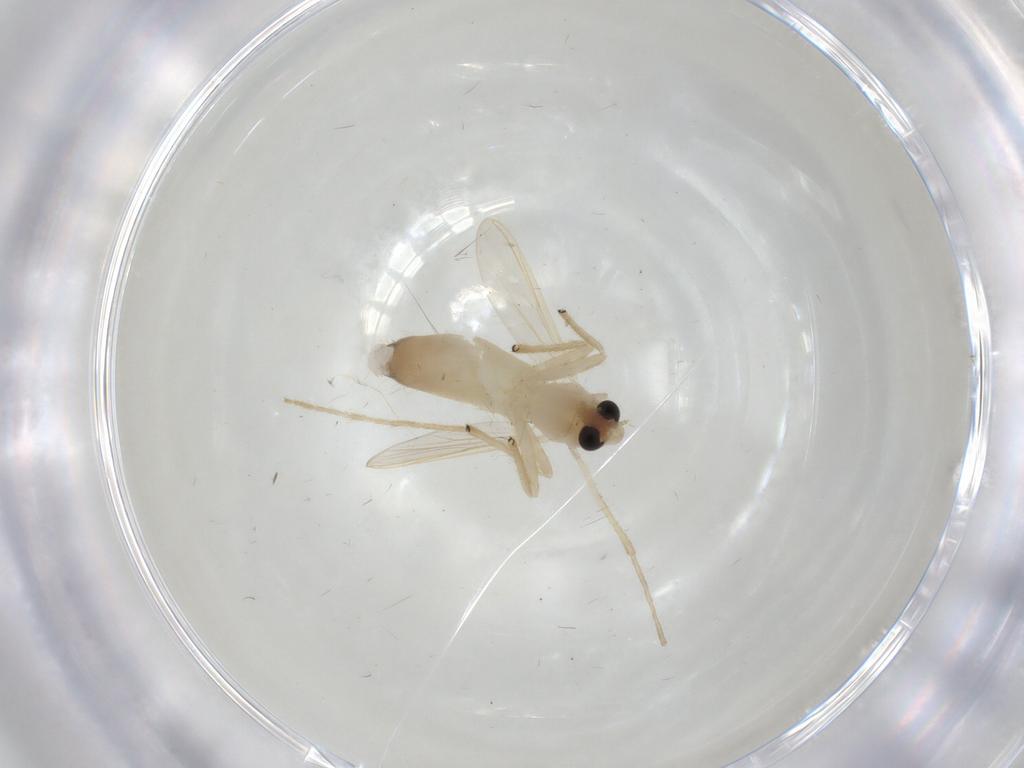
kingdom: Animalia
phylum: Arthropoda
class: Insecta
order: Diptera
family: Chironomidae
